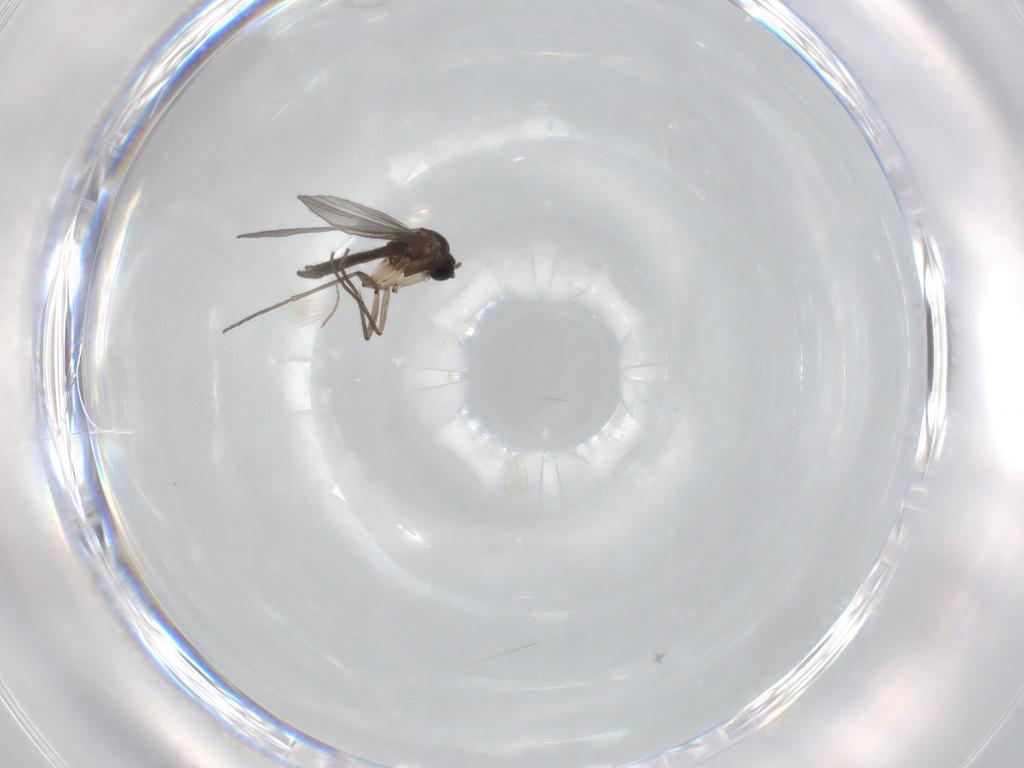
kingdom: Animalia
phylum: Arthropoda
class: Insecta
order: Diptera
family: Sciaridae
